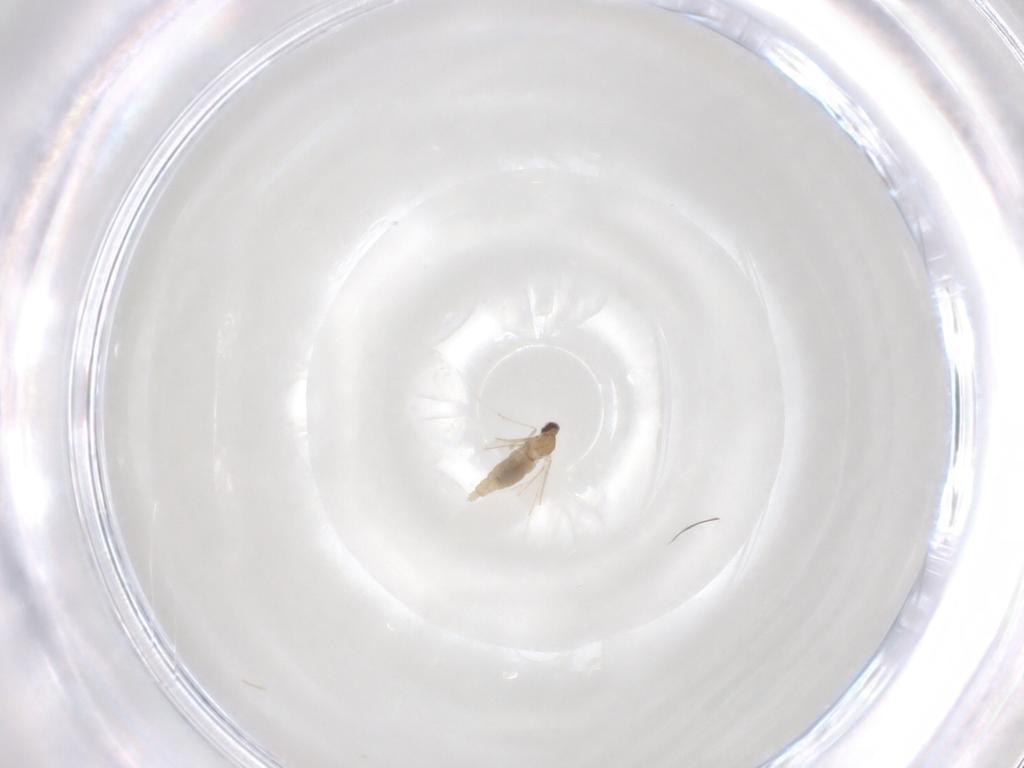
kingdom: Animalia
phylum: Arthropoda
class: Insecta
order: Diptera
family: Cecidomyiidae
